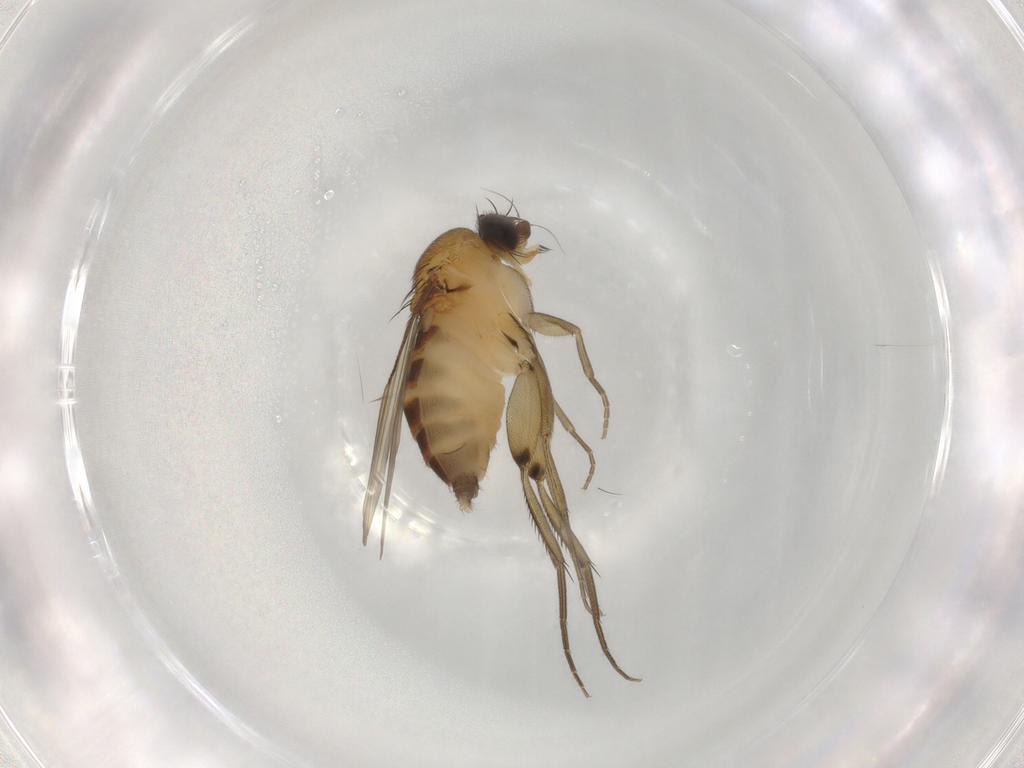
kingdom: Animalia
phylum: Arthropoda
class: Insecta
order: Diptera
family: Phoridae
